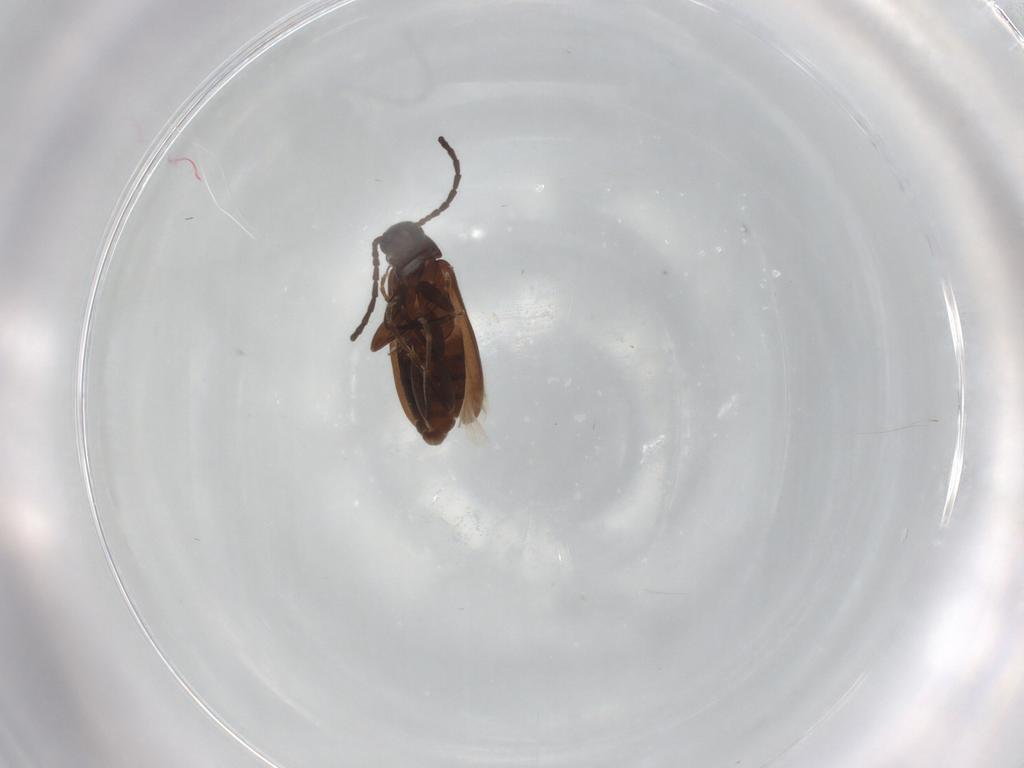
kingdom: Animalia
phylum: Arthropoda
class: Insecta
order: Coleoptera
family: Scraptiidae
